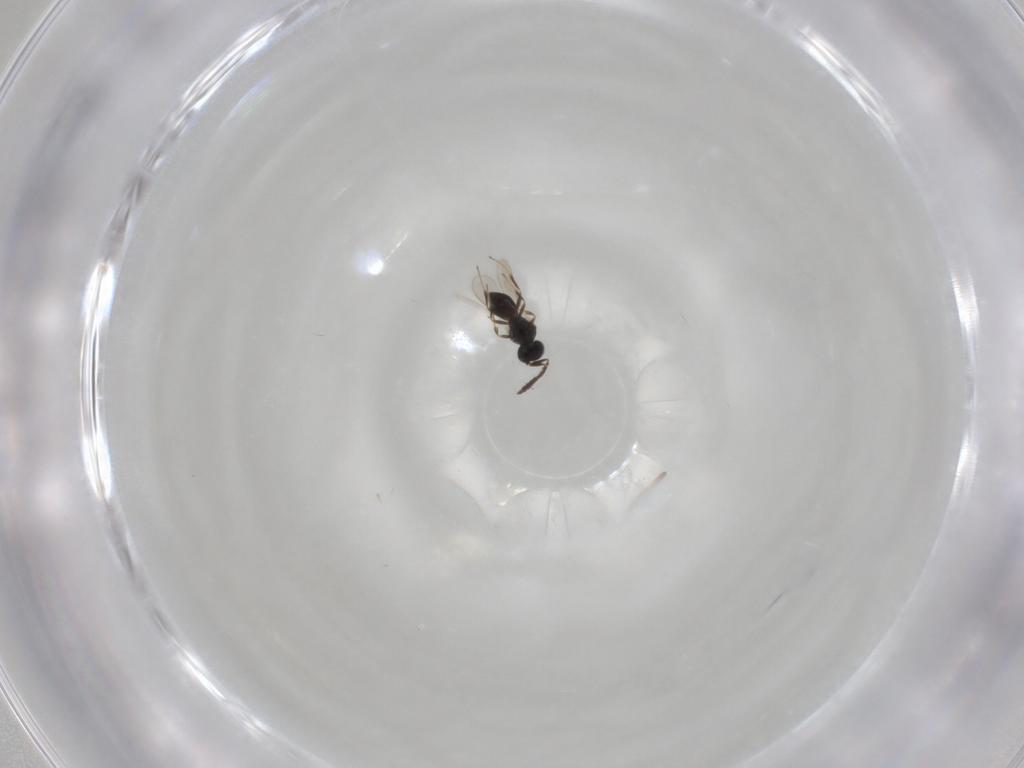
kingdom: Animalia
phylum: Arthropoda
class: Insecta
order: Hymenoptera
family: Scelionidae
